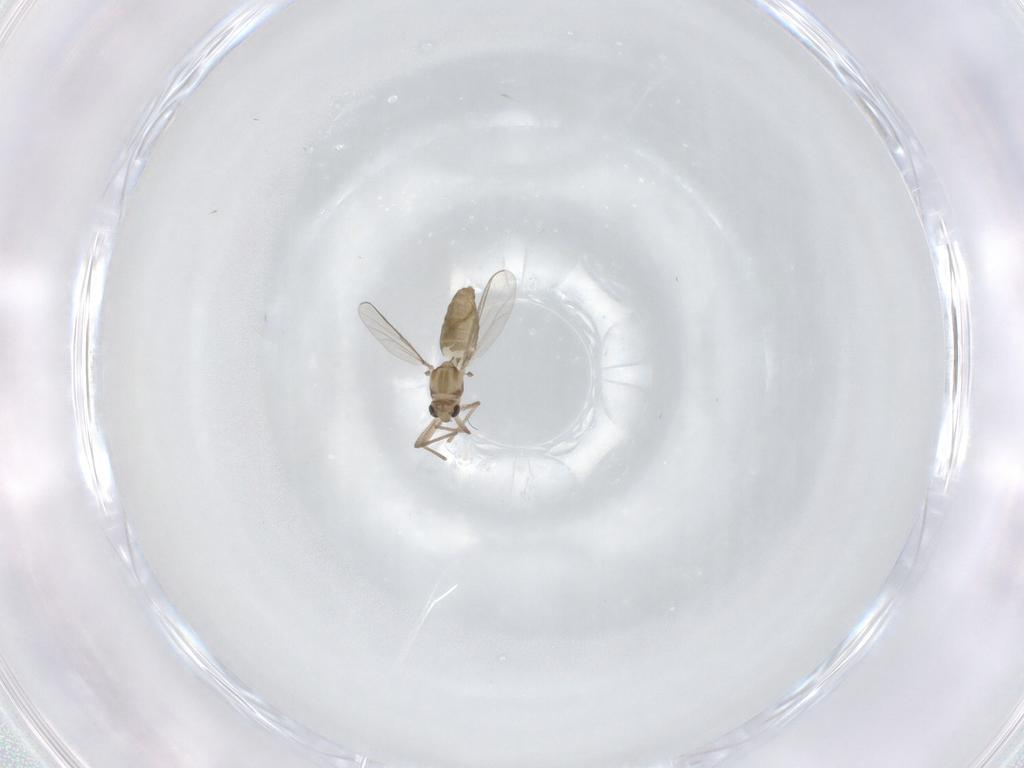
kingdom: Animalia
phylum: Arthropoda
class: Insecta
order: Diptera
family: Chironomidae
